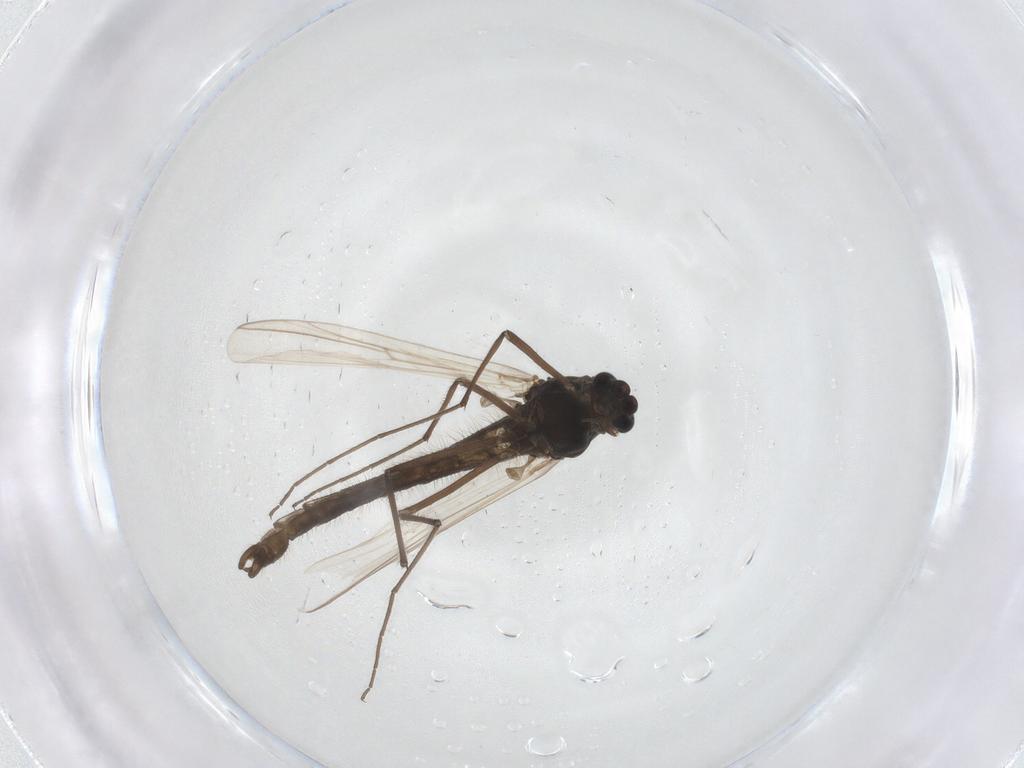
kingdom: Animalia
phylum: Arthropoda
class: Insecta
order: Diptera
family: Chironomidae
